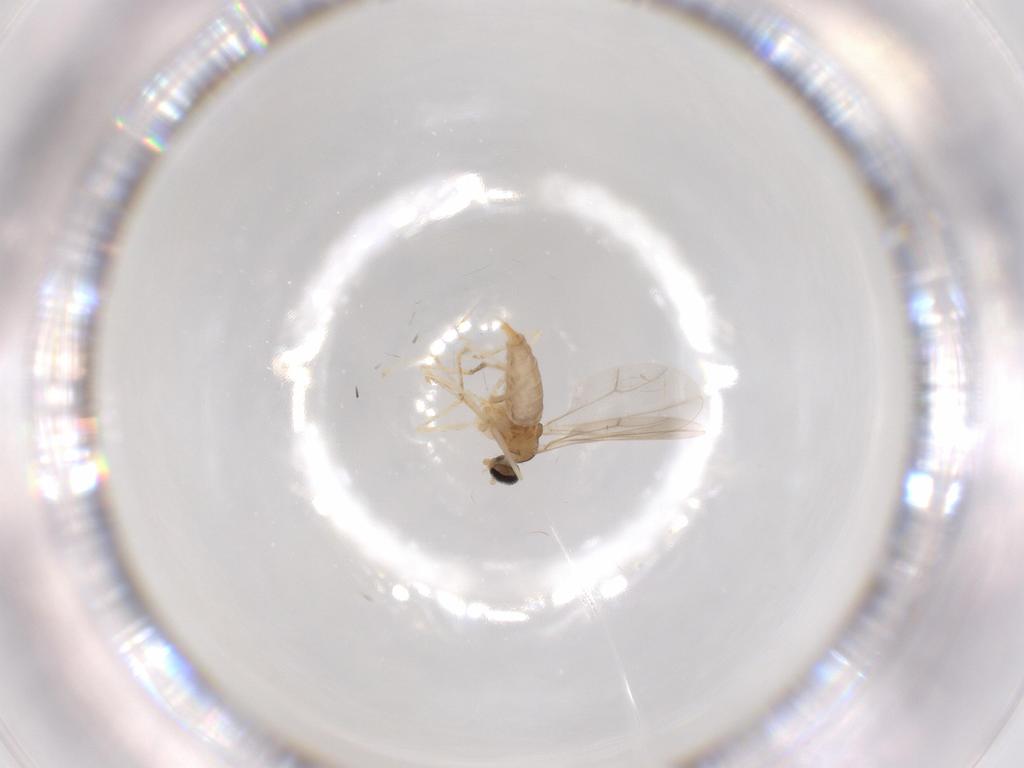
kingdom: Animalia
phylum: Arthropoda
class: Insecta
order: Diptera
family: Cecidomyiidae
